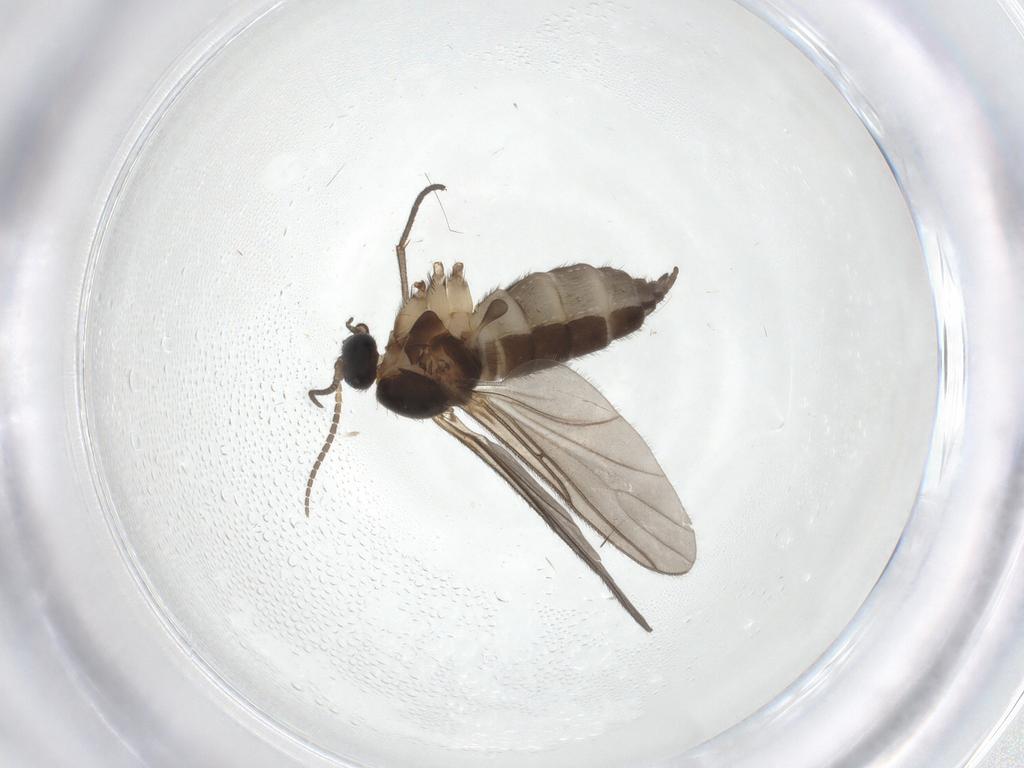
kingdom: Animalia
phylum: Arthropoda
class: Insecta
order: Diptera
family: Sciaridae
